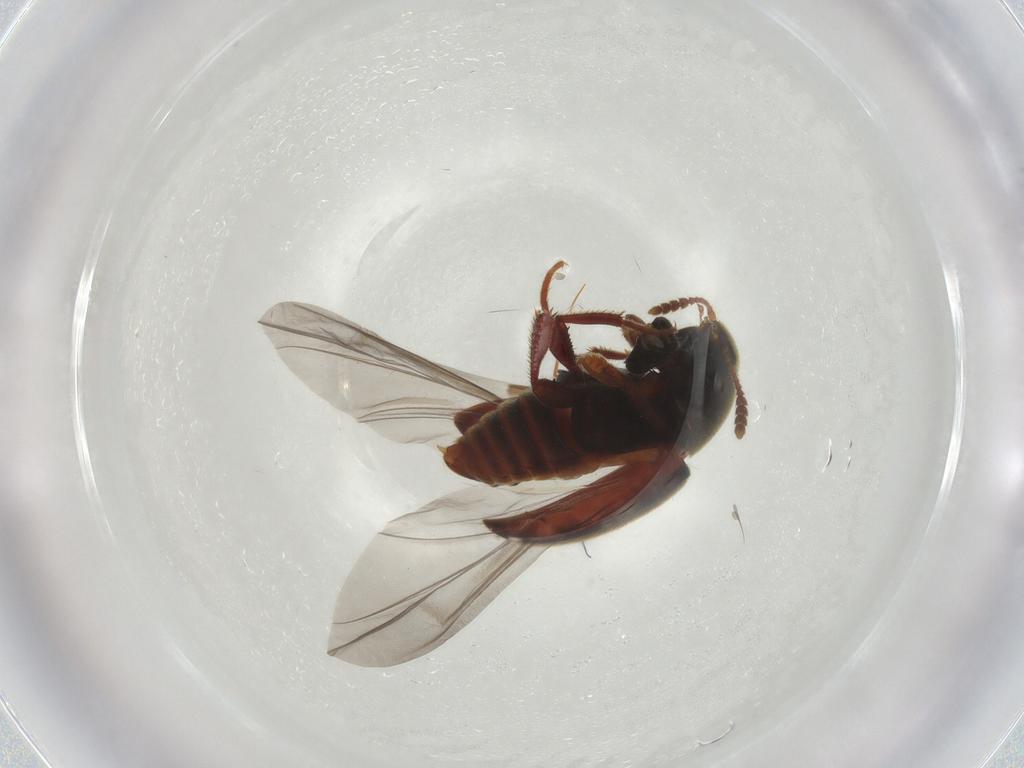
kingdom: Animalia
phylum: Arthropoda
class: Insecta
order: Diptera
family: Phoridae
